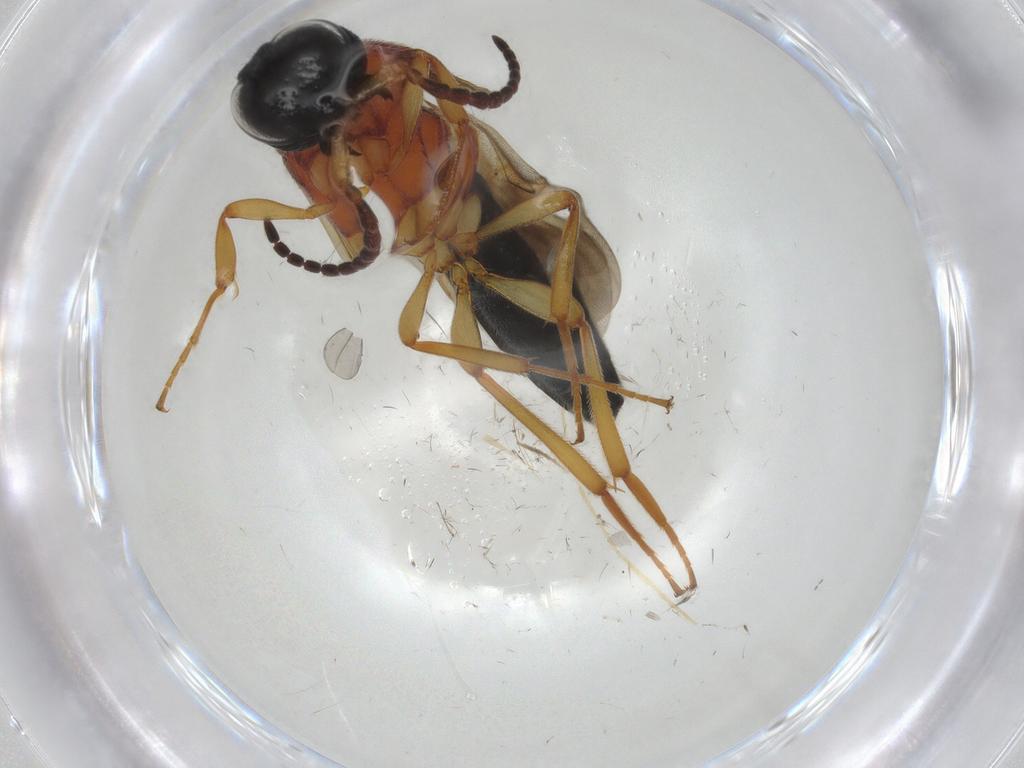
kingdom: Animalia
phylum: Arthropoda
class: Insecta
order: Hymenoptera
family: Scelionidae
